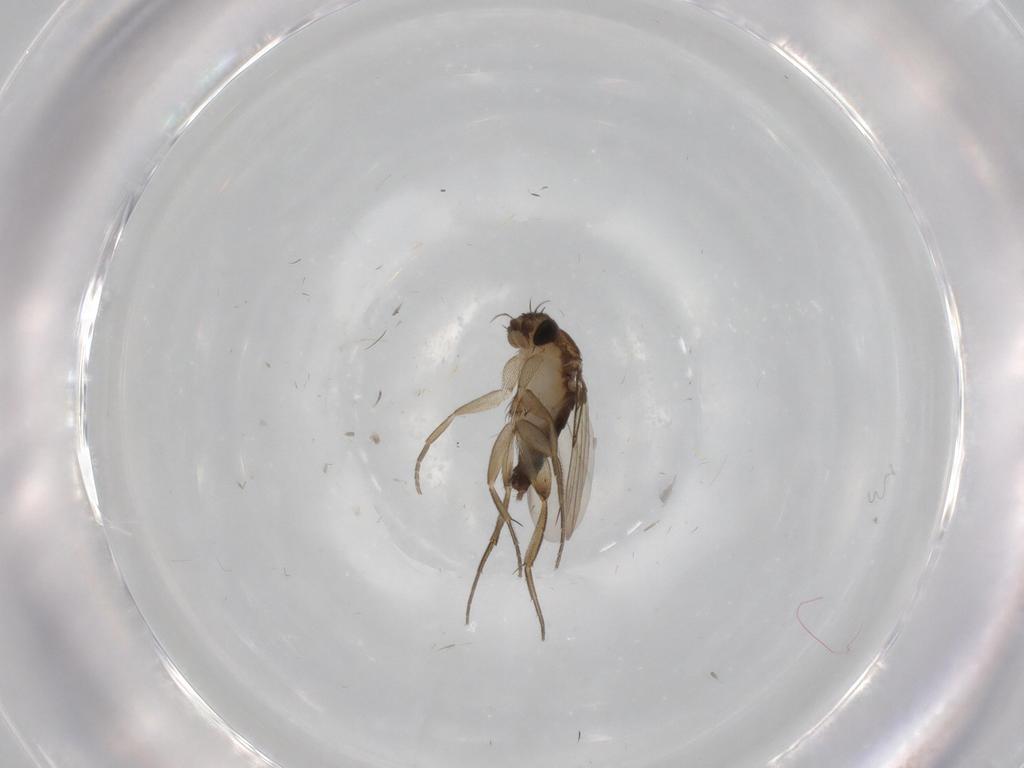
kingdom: Animalia
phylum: Arthropoda
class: Insecta
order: Diptera
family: Phoridae
